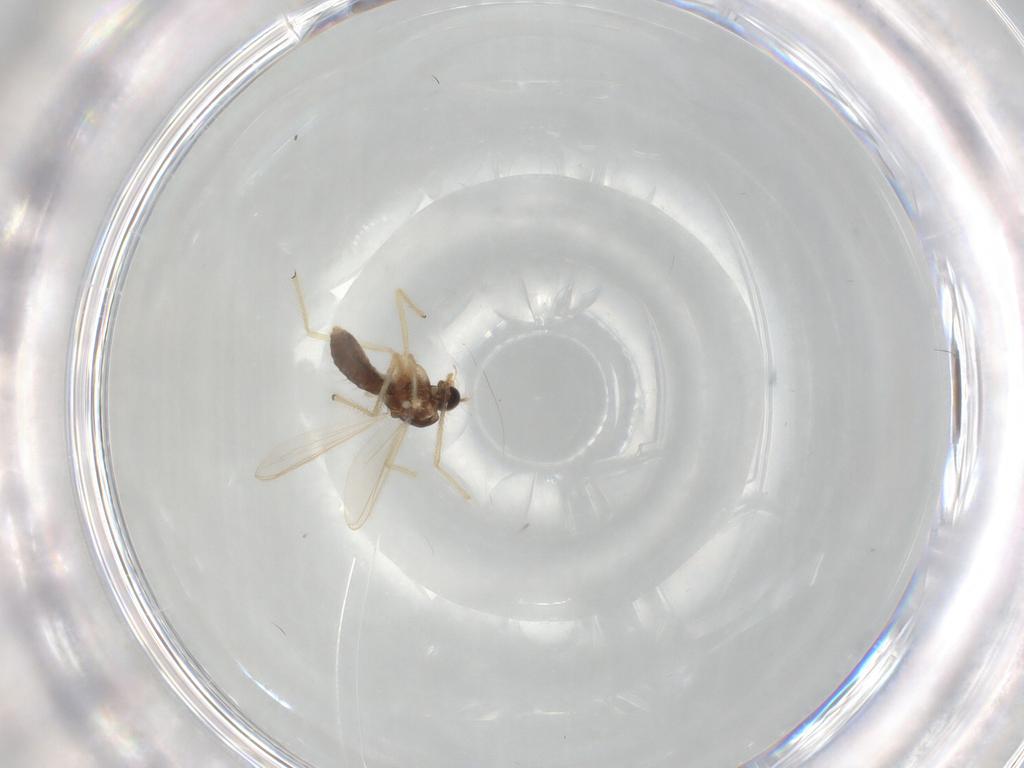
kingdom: Animalia
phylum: Arthropoda
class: Insecta
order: Diptera
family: Chironomidae
